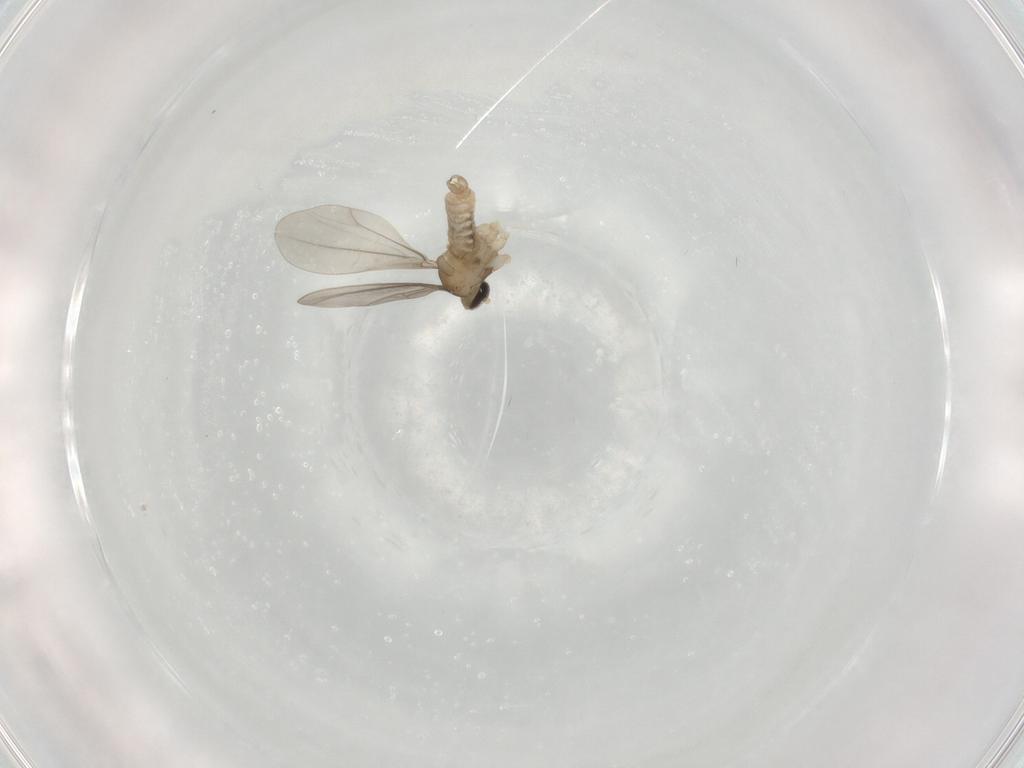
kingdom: Animalia
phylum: Arthropoda
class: Insecta
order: Diptera
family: Cecidomyiidae
